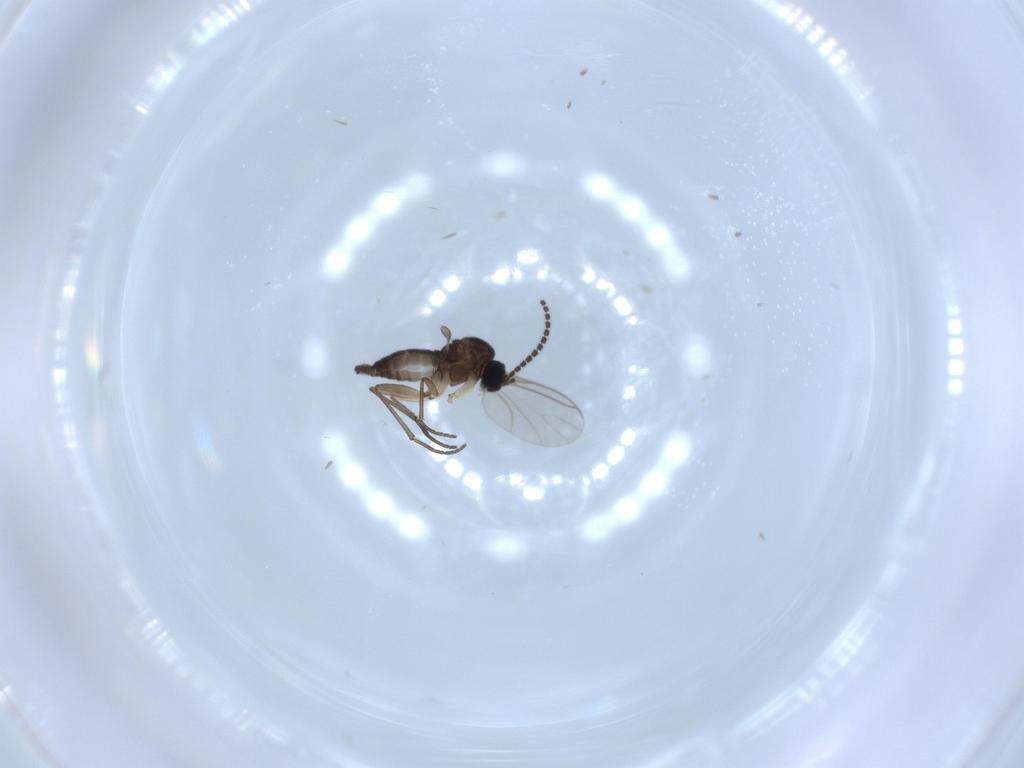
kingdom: Animalia
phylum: Arthropoda
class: Insecta
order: Diptera
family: Sciaridae
